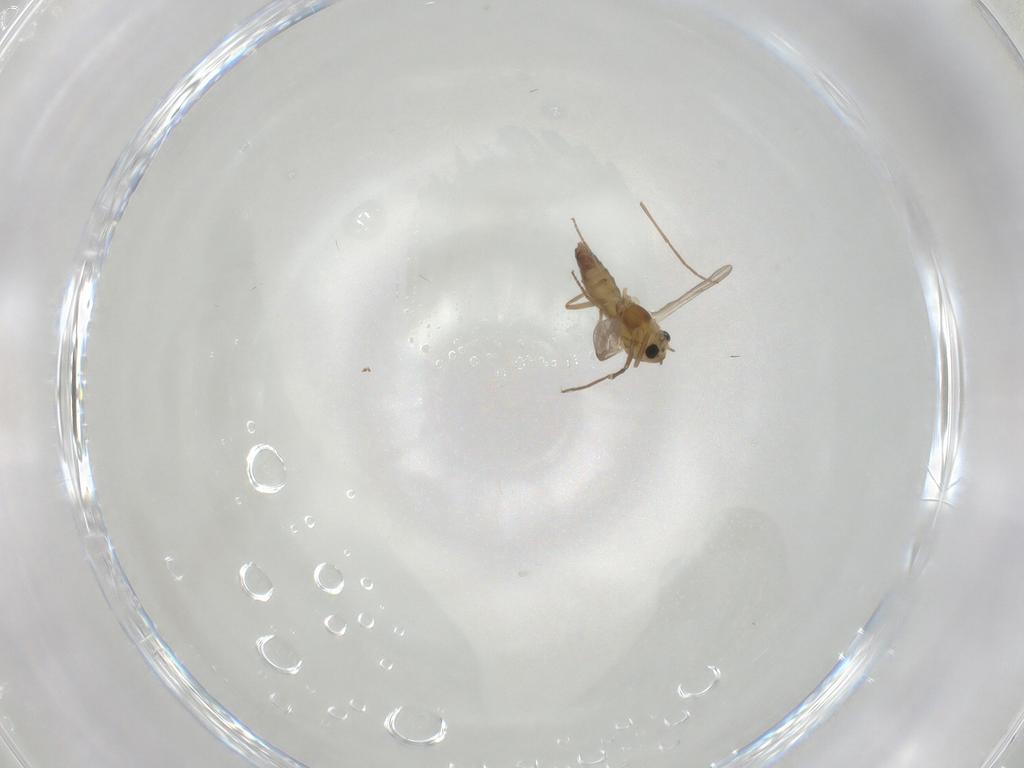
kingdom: Animalia
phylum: Arthropoda
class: Insecta
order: Diptera
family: Chironomidae
